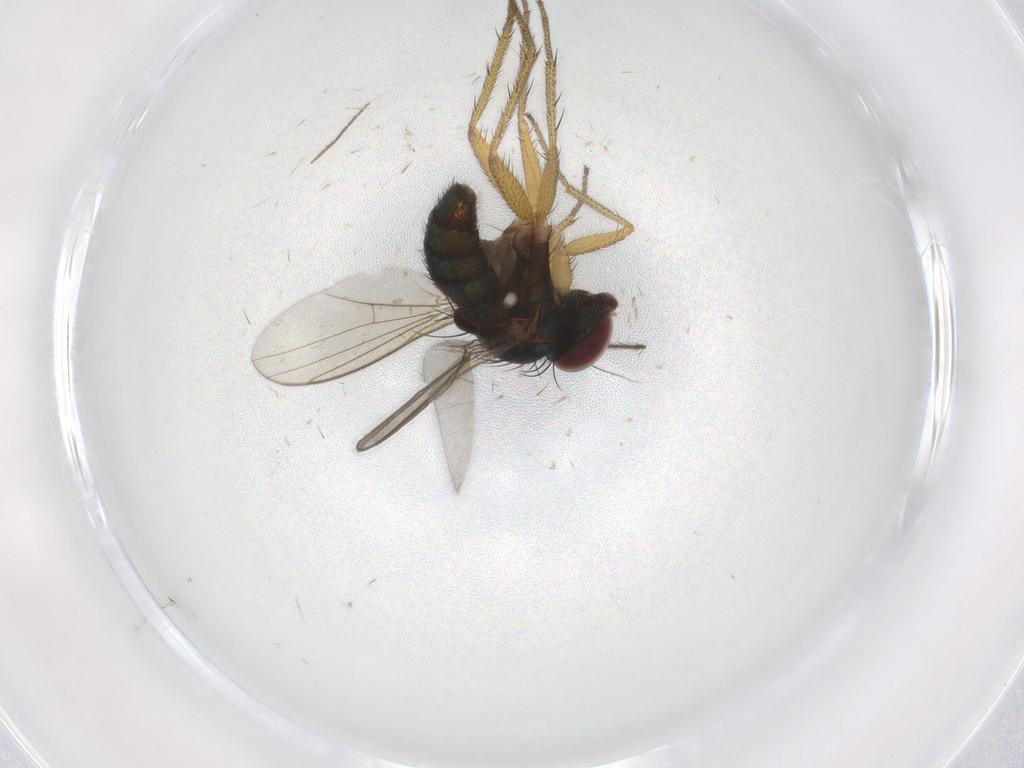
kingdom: Animalia
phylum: Arthropoda
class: Insecta
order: Diptera
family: Dolichopodidae
